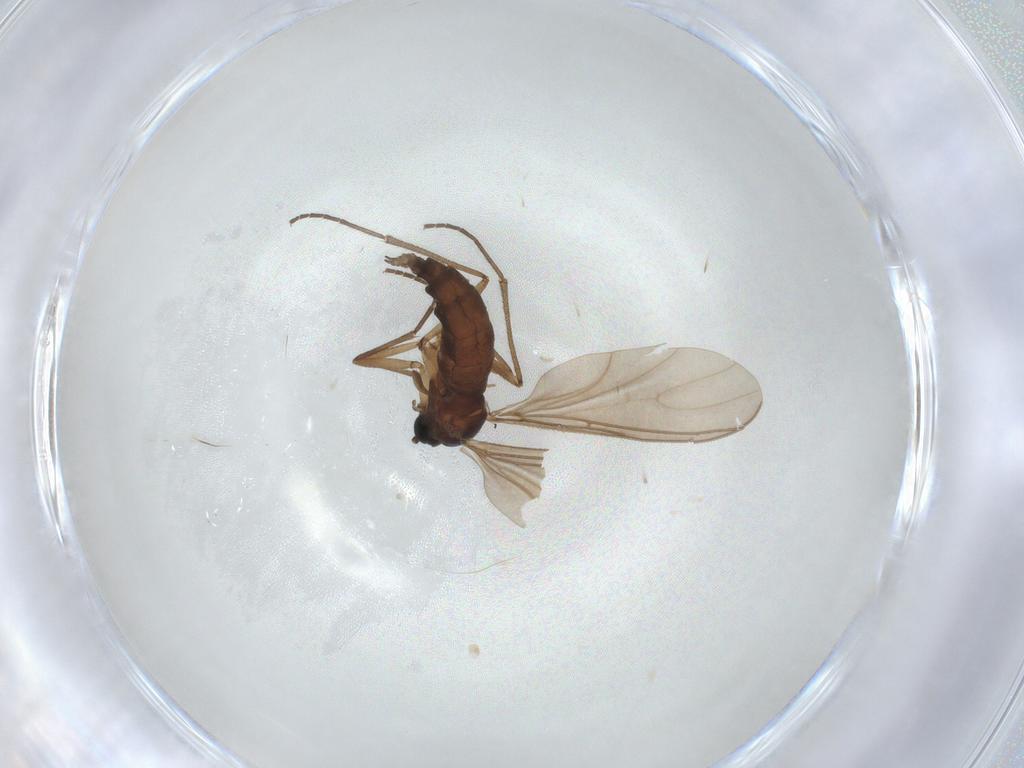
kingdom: Animalia
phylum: Arthropoda
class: Insecta
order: Diptera
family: Sciaridae
